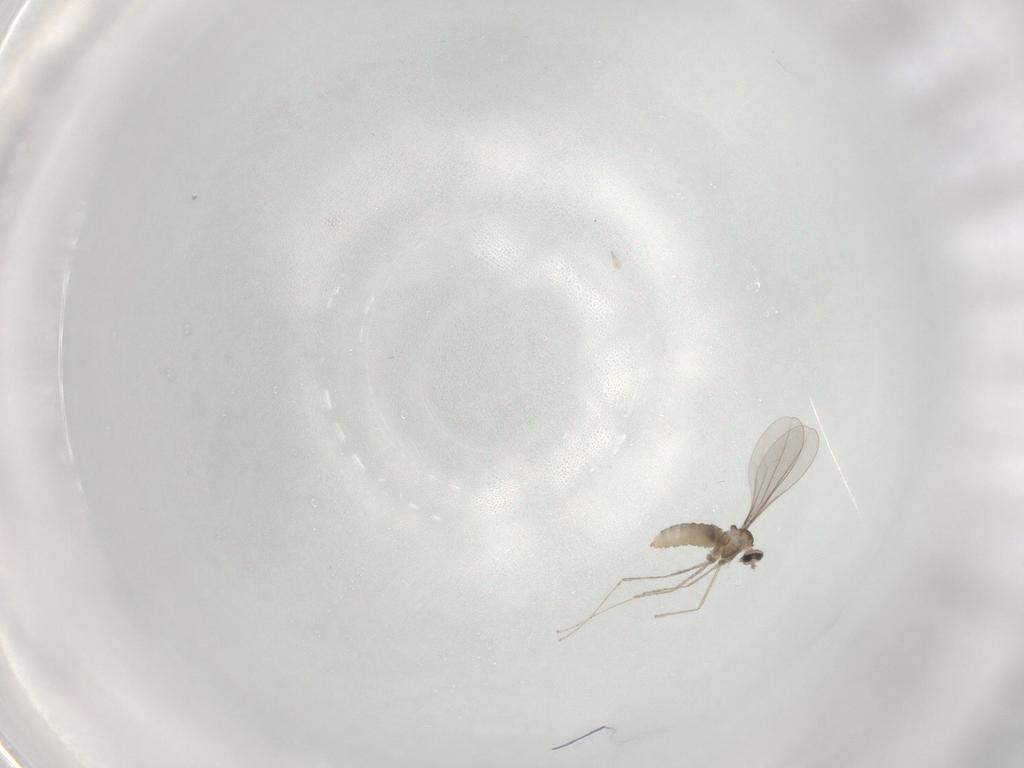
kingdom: Animalia
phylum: Arthropoda
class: Insecta
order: Diptera
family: Cecidomyiidae
